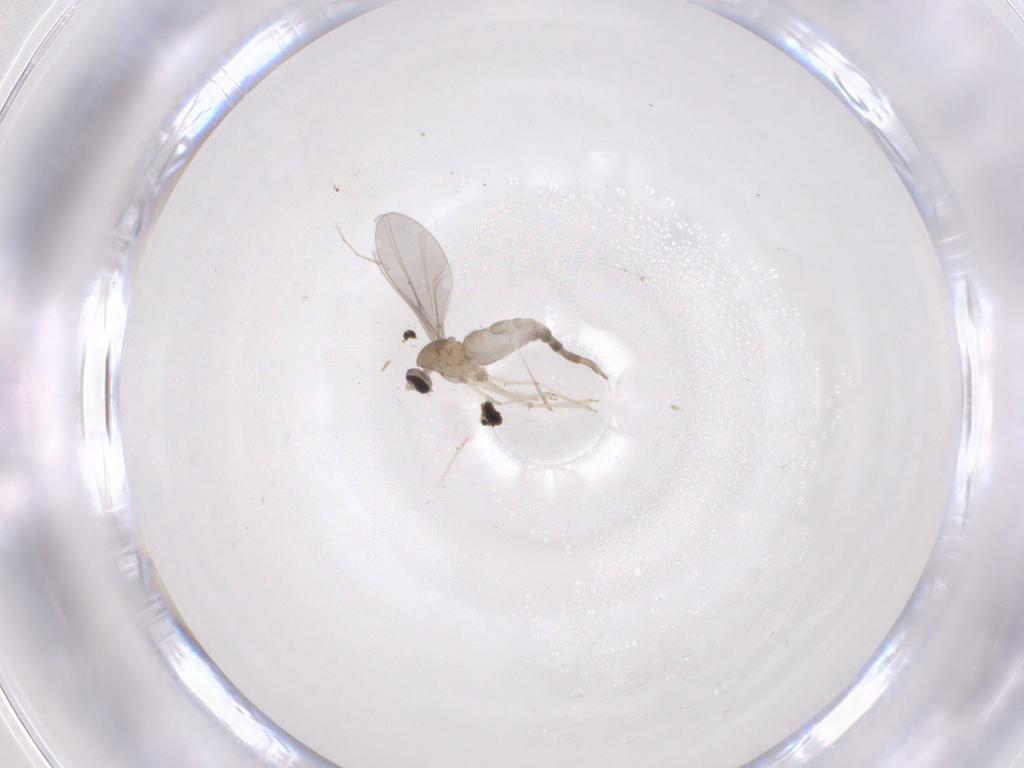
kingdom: Animalia
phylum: Arthropoda
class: Insecta
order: Diptera
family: Cecidomyiidae
